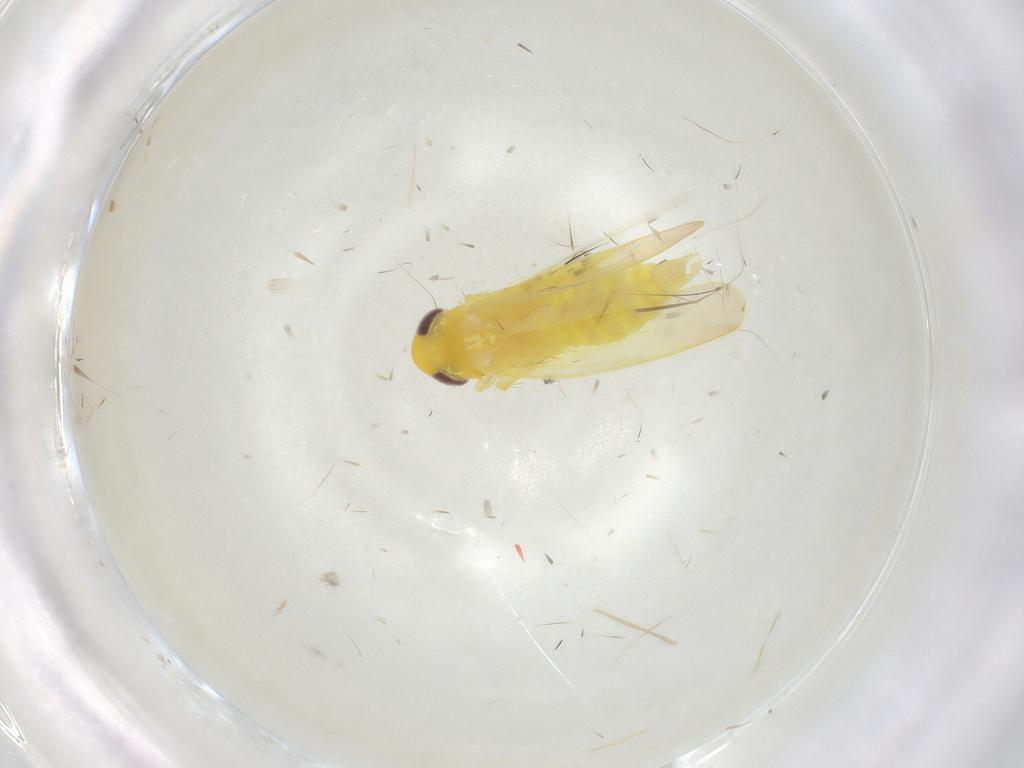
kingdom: Animalia
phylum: Arthropoda
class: Insecta
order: Hemiptera
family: Cicadellidae
